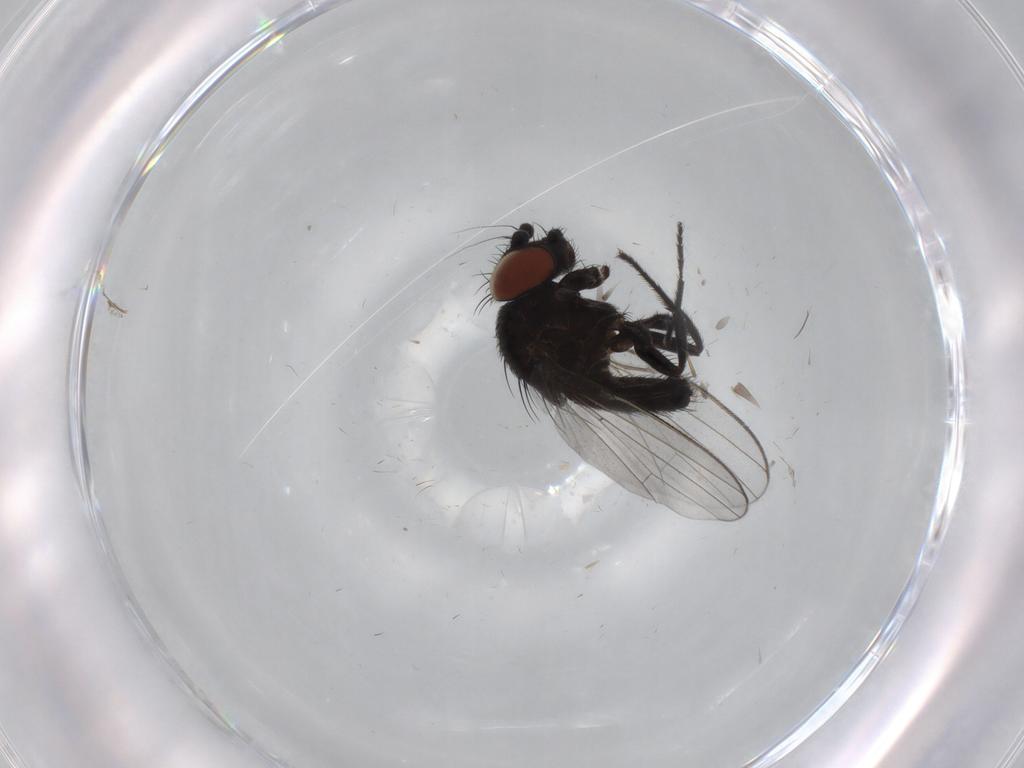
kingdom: Animalia
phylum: Arthropoda
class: Insecta
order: Diptera
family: Milichiidae
